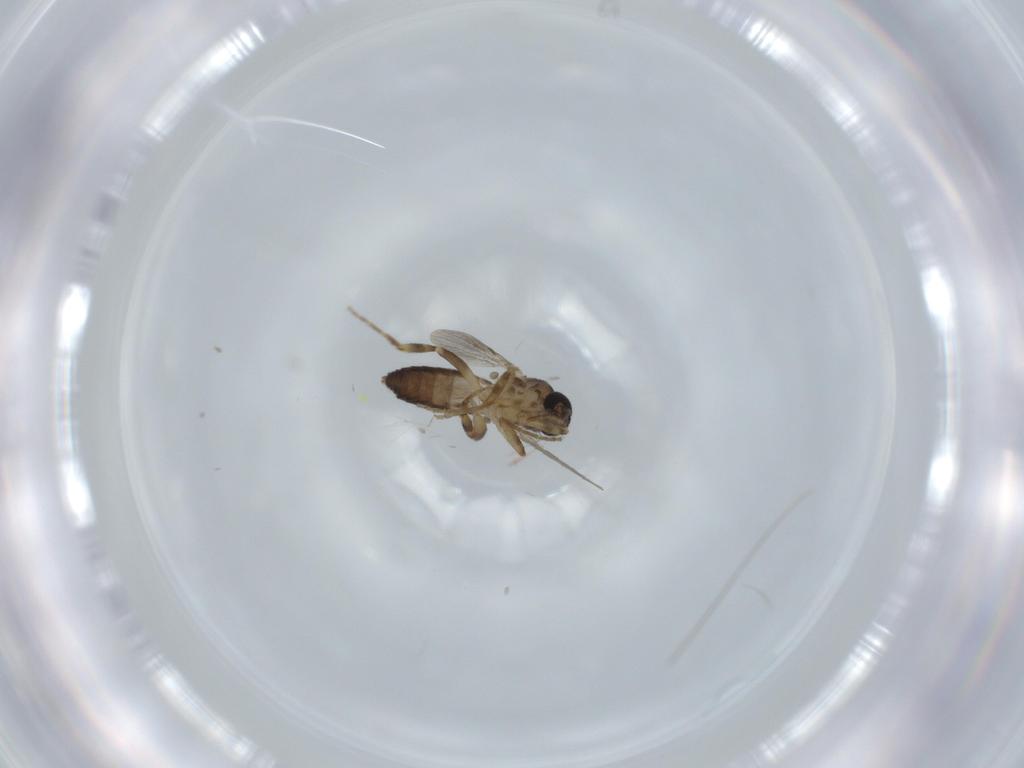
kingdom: Animalia
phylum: Arthropoda
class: Insecta
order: Diptera
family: Ceratopogonidae
